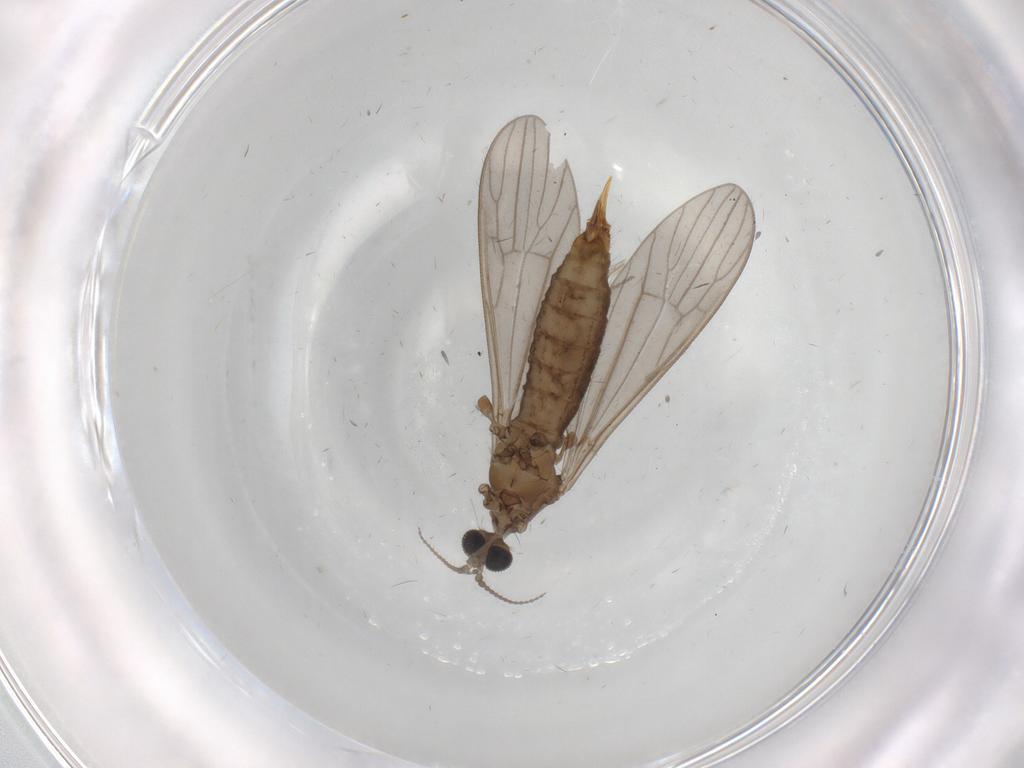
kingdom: Animalia
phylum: Arthropoda
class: Insecta
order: Diptera
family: Limoniidae
